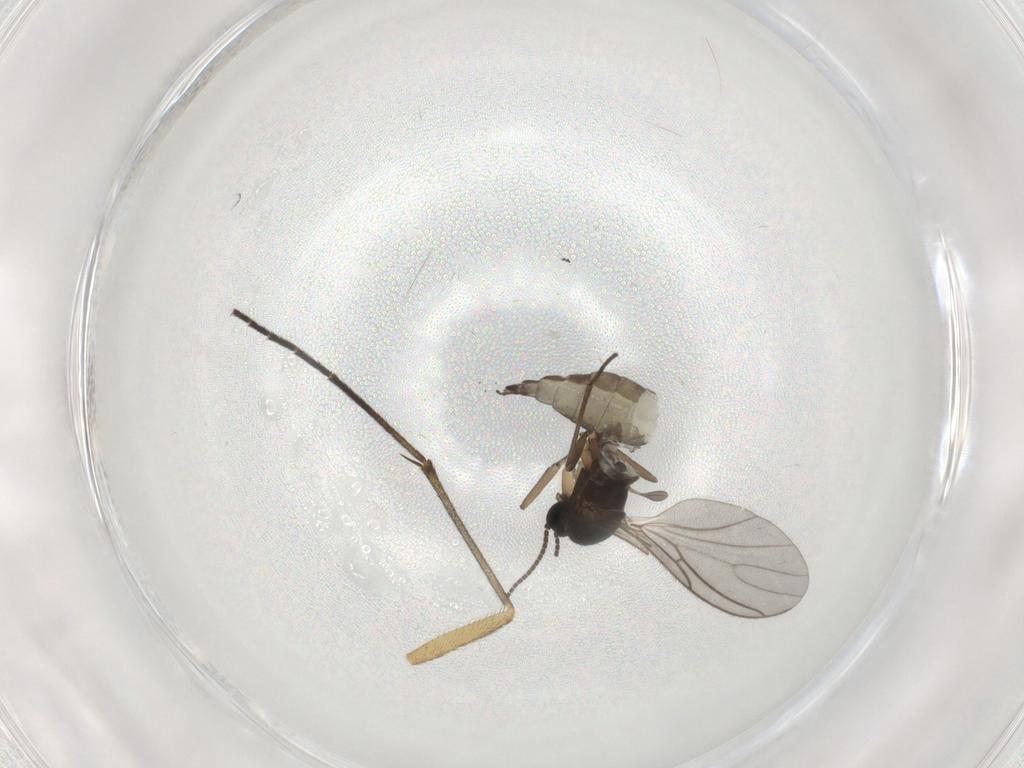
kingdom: Animalia
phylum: Arthropoda
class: Insecta
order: Diptera
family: Sciaridae
